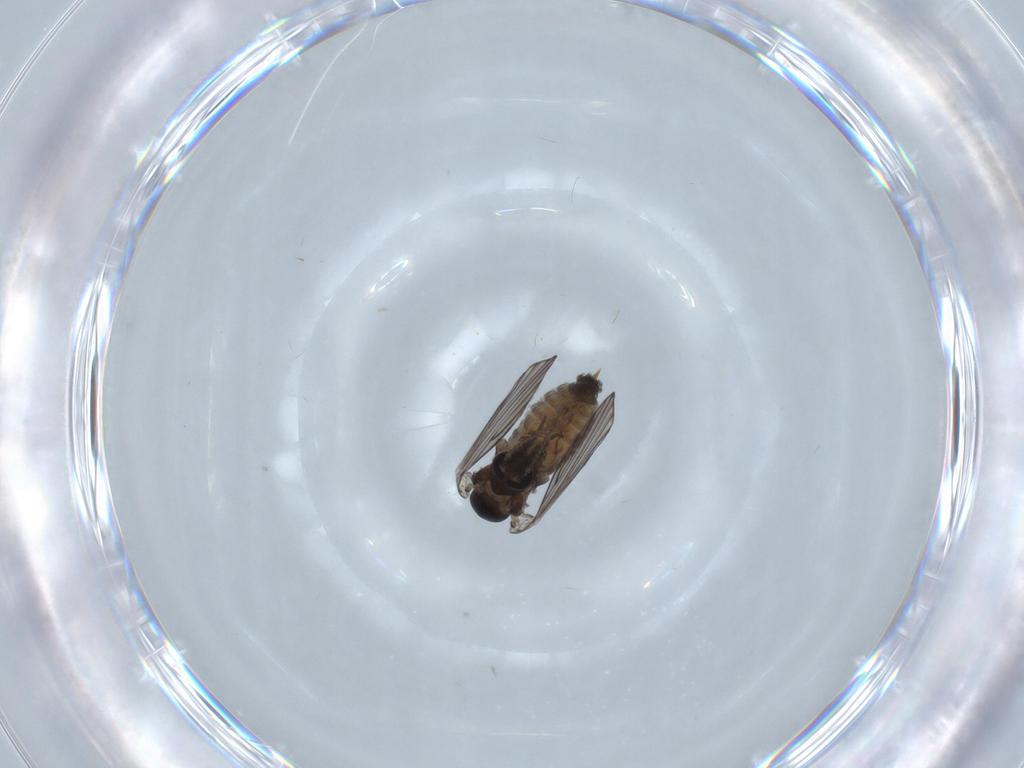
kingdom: Animalia
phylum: Arthropoda
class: Insecta
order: Diptera
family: Psychodidae
